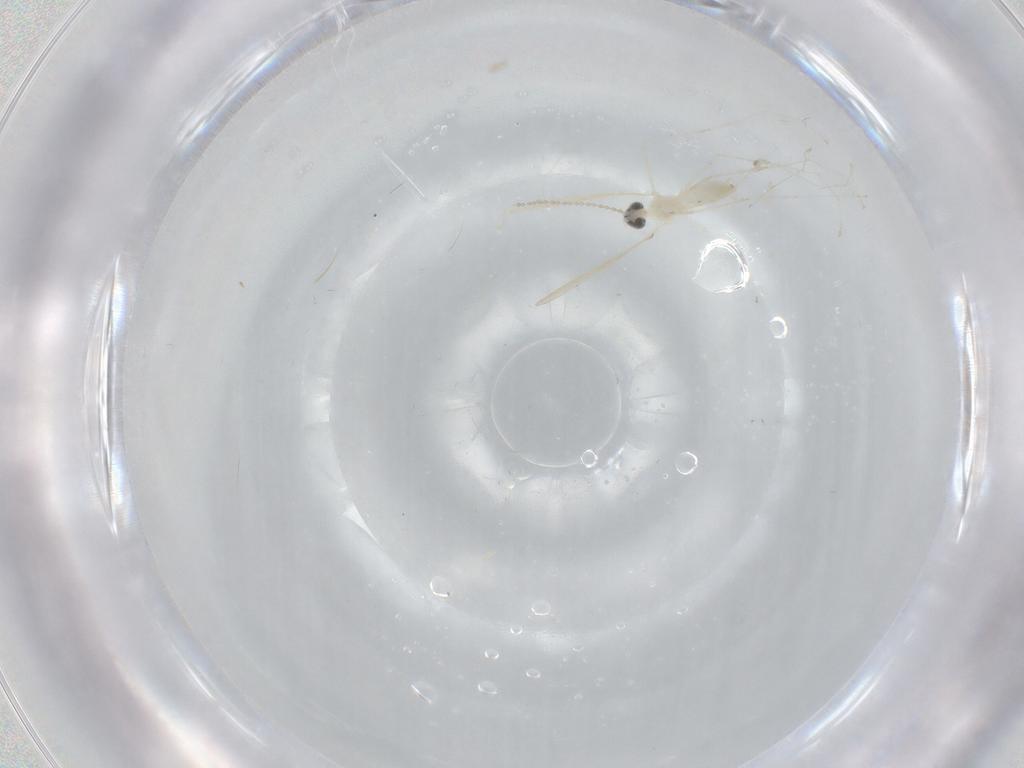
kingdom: Animalia
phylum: Arthropoda
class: Insecta
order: Diptera
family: Cecidomyiidae
